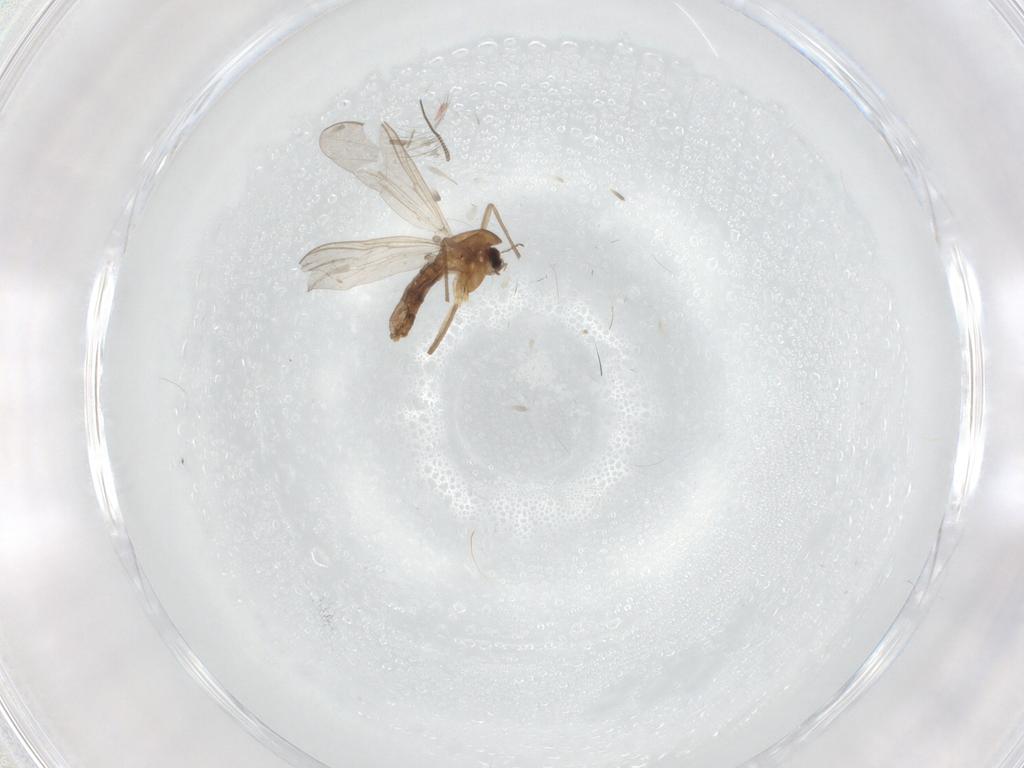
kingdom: Animalia
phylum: Arthropoda
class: Insecta
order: Diptera
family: Chironomidae
